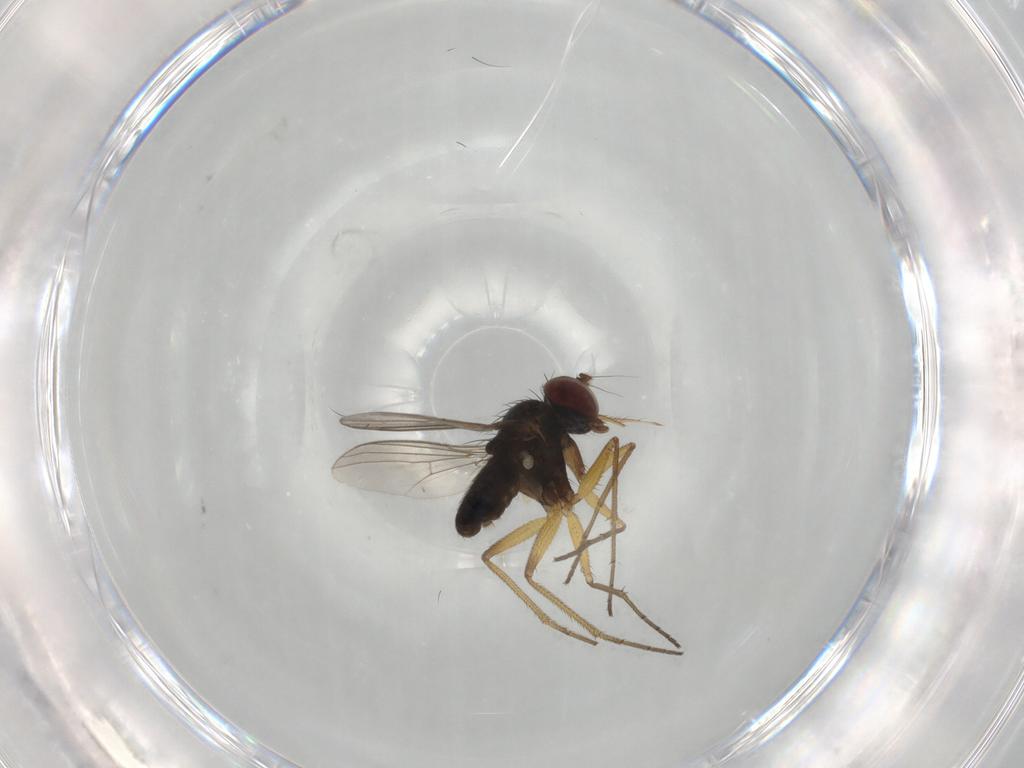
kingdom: Animalia
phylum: Arthropoda
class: Insecta
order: Diptera
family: Dolichopodidae
